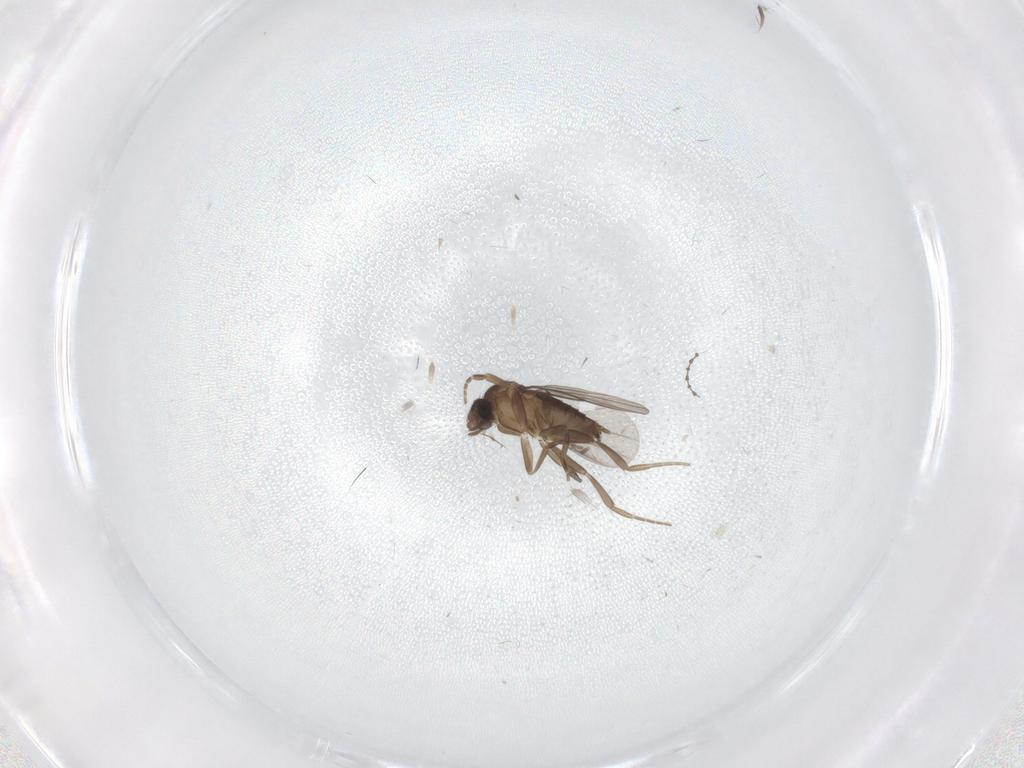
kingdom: Animalia
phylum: Arthropoda
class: Insecta
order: Diptera
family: Phoridae
